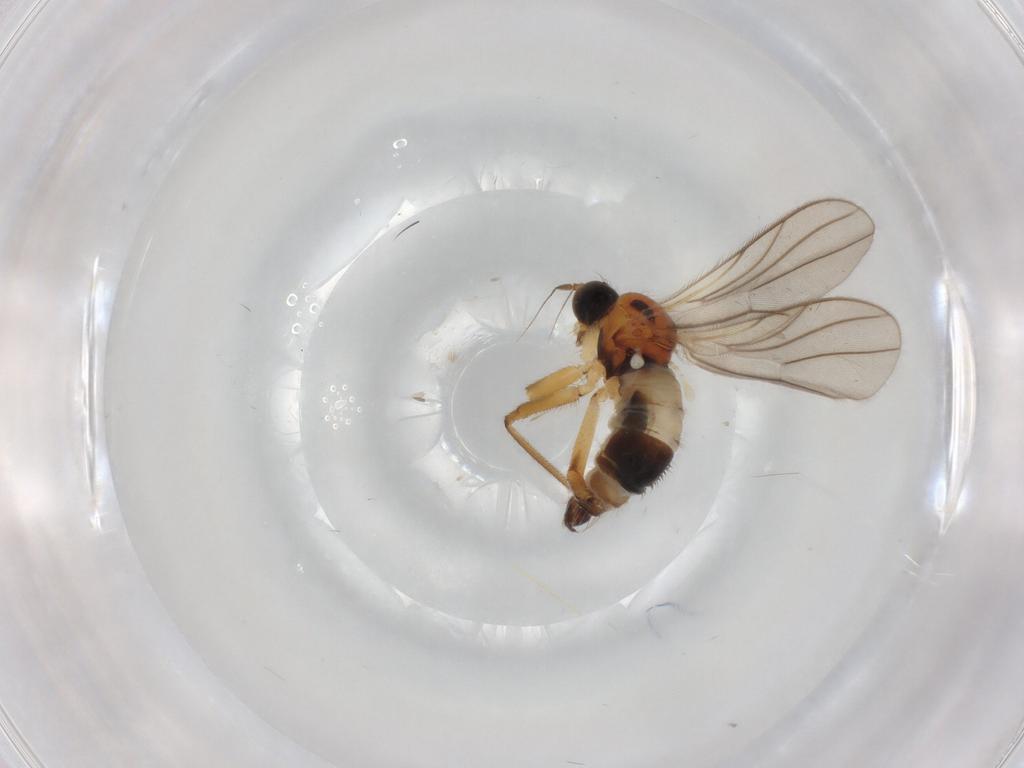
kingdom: Animalia
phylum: Arthropoda
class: Insecta
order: Diptera
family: Hybotidae
